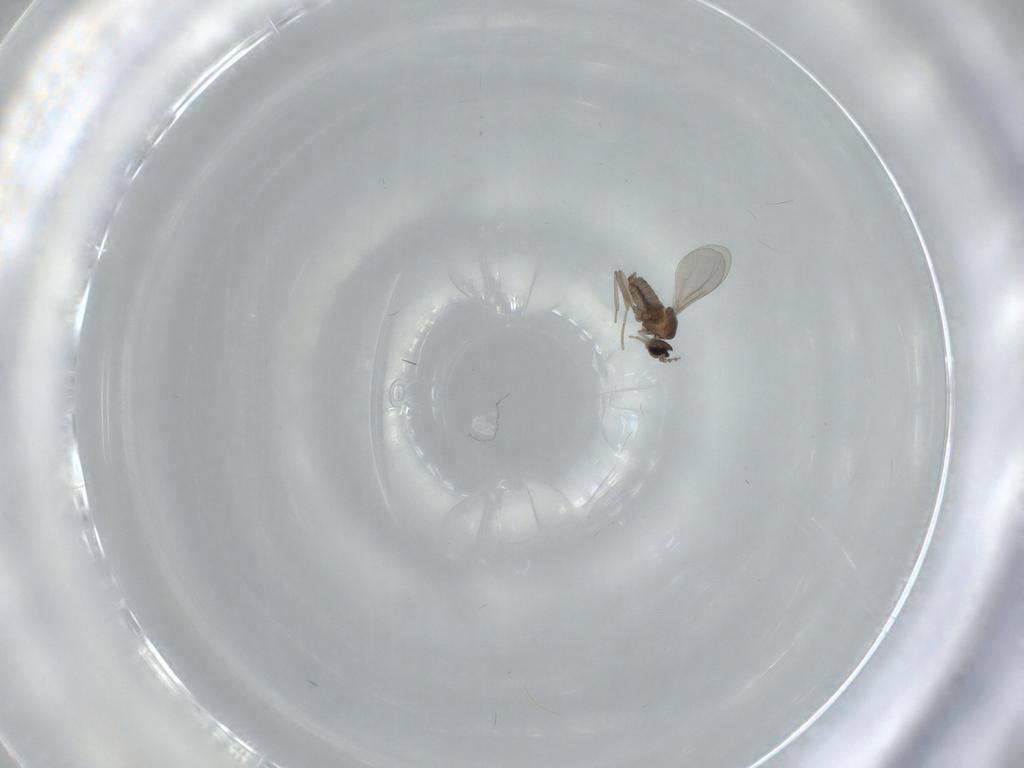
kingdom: Animalia
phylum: Arthropoda
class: Insecta
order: Diptera
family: Cecidomyiidae
